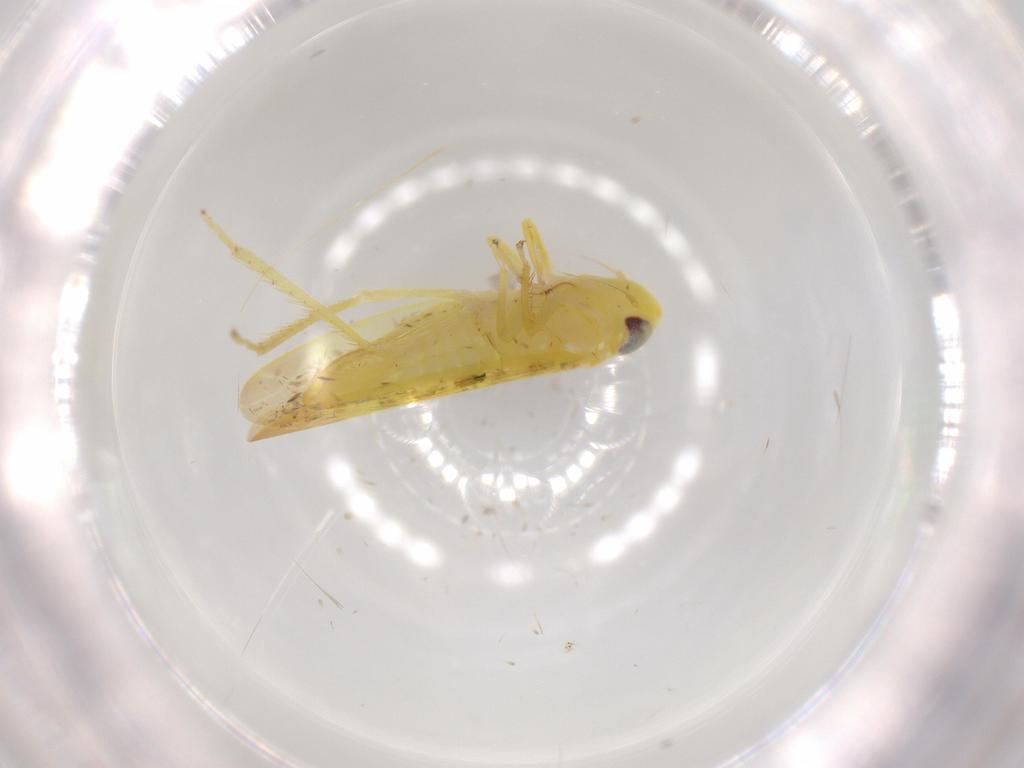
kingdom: Animalia
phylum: Arthropoda
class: Insecta
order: Hemiptera
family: Cicadellidae
